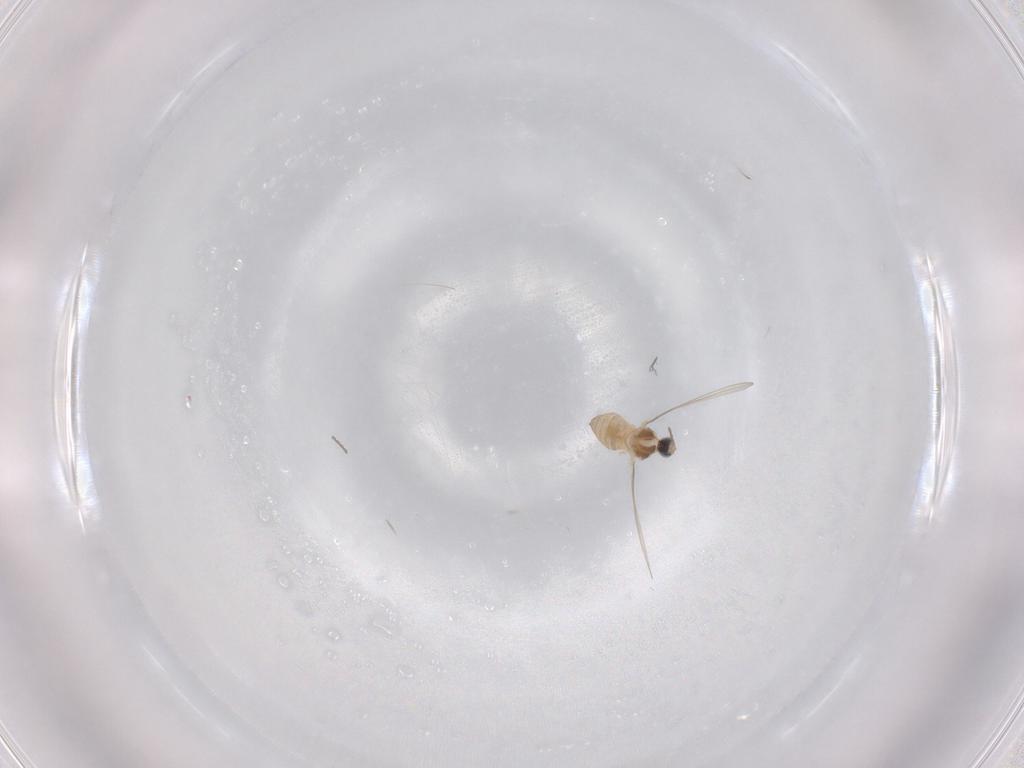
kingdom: Animalia
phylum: Arthropoda
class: Insecta
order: Diptera
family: Cecidomyiidae
